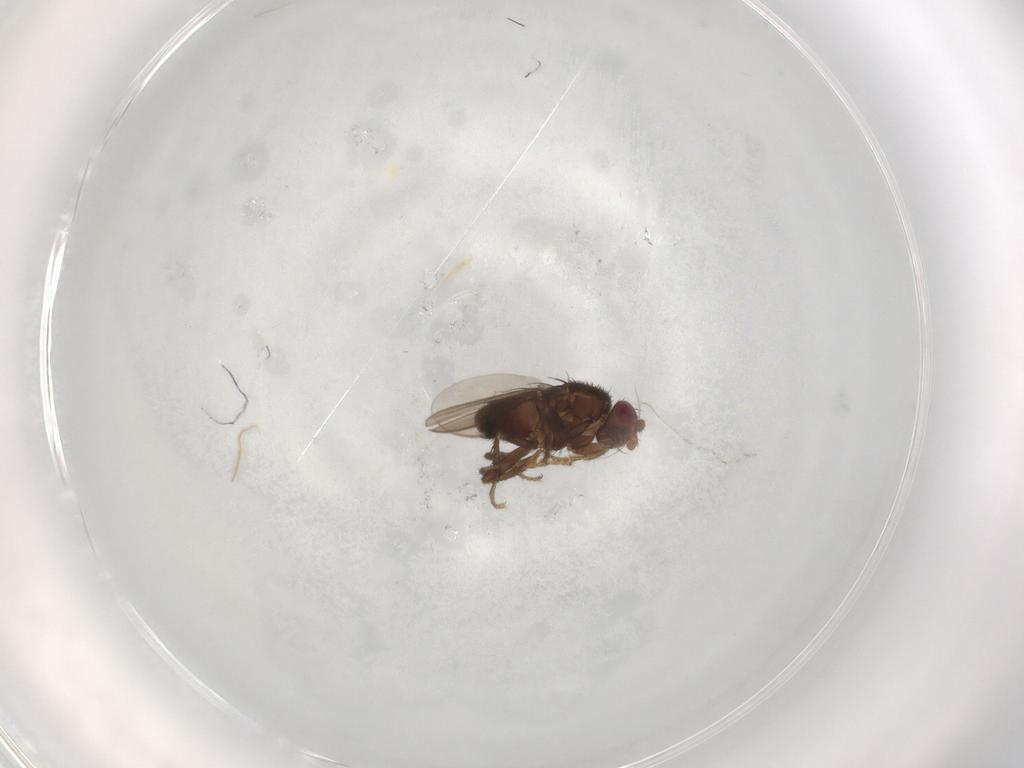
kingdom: Animalia
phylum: Arthropoda
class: Insecta
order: Diptera
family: Sphaeroceridae
